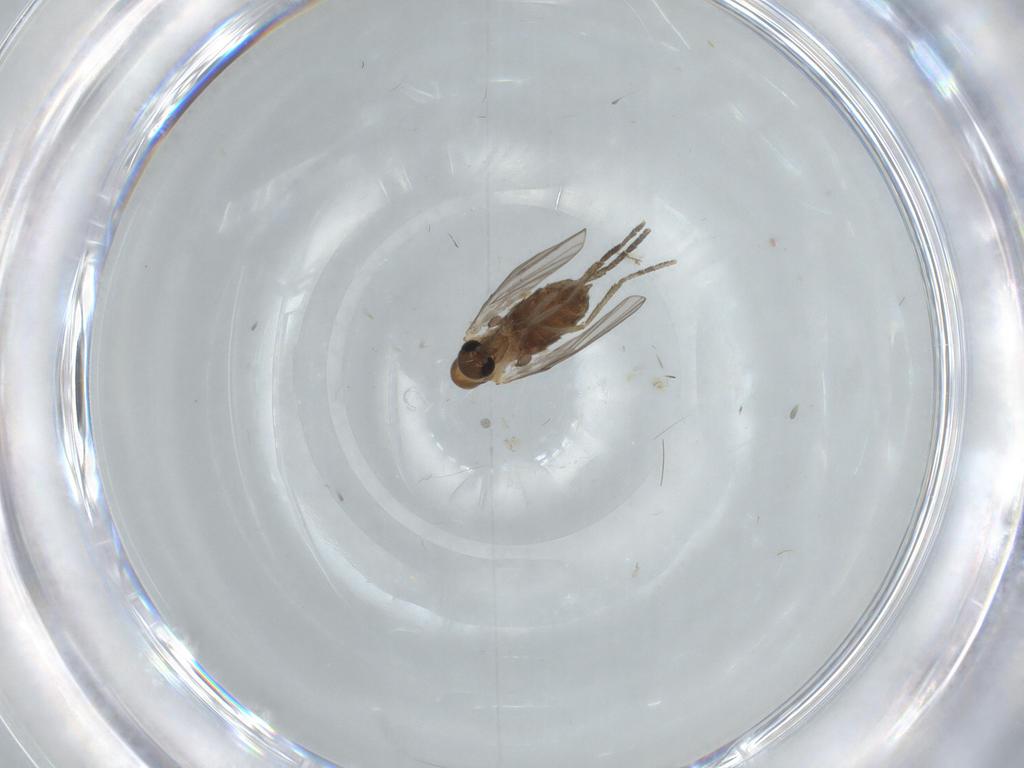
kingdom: Animalia
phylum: Arthropoda
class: Insecta
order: Diptera
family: Psychodidae
